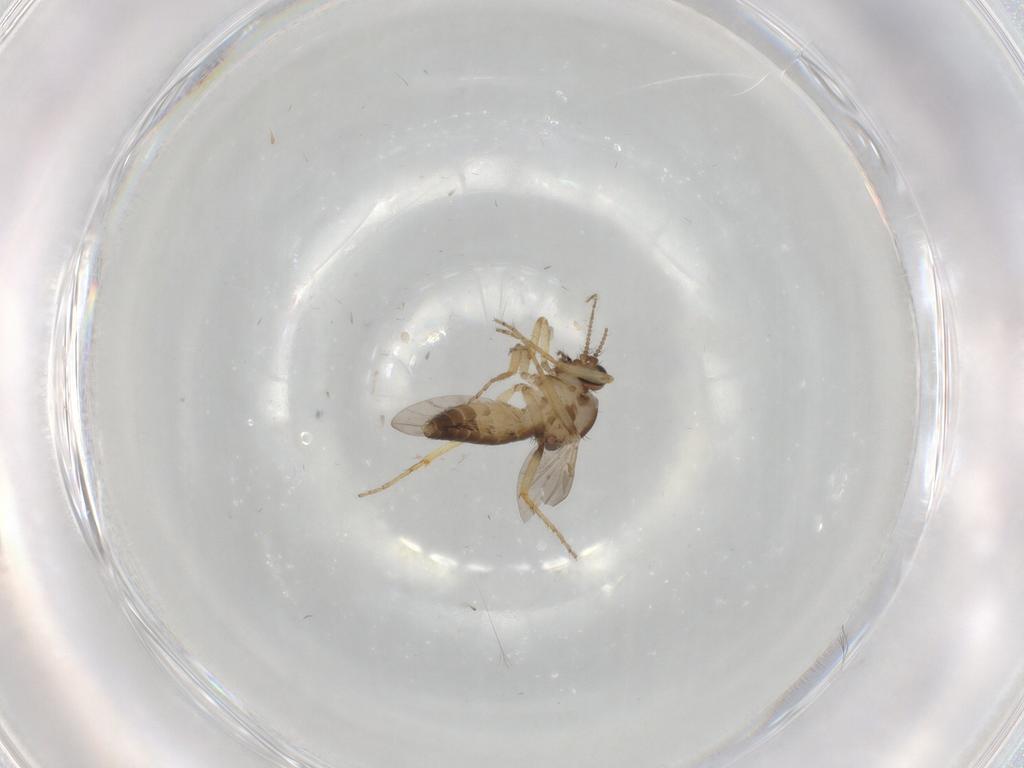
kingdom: Animalia
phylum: Arthropoda
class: Insecta
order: Diptera
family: Ceratopogonidae
